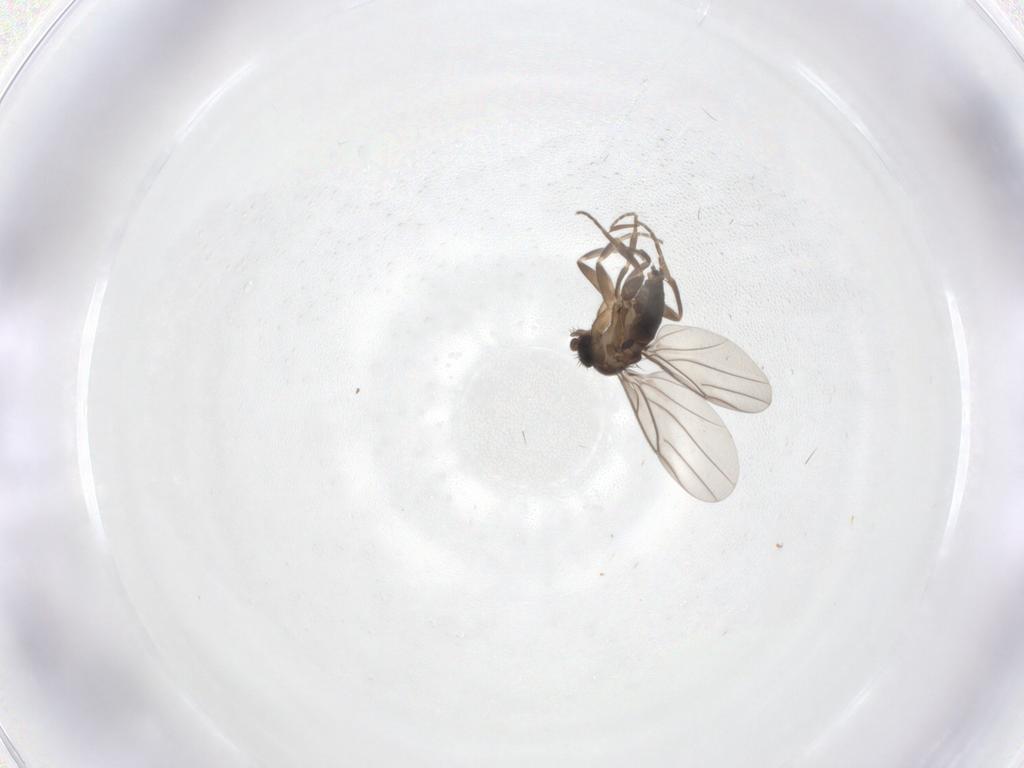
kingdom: Animalia
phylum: Arthropoda
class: Insecta
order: Diptera
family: Phoridae
